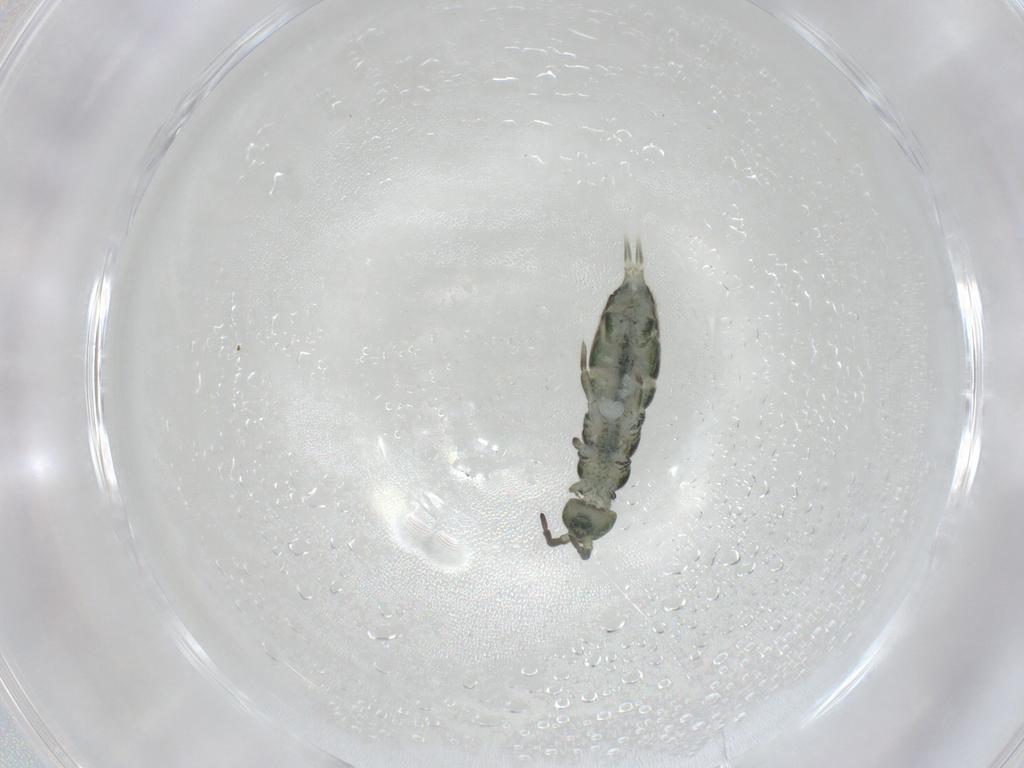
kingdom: Animalia
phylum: Arthropoda
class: Collembola
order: Entomobryomorpha
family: Isotomidae
